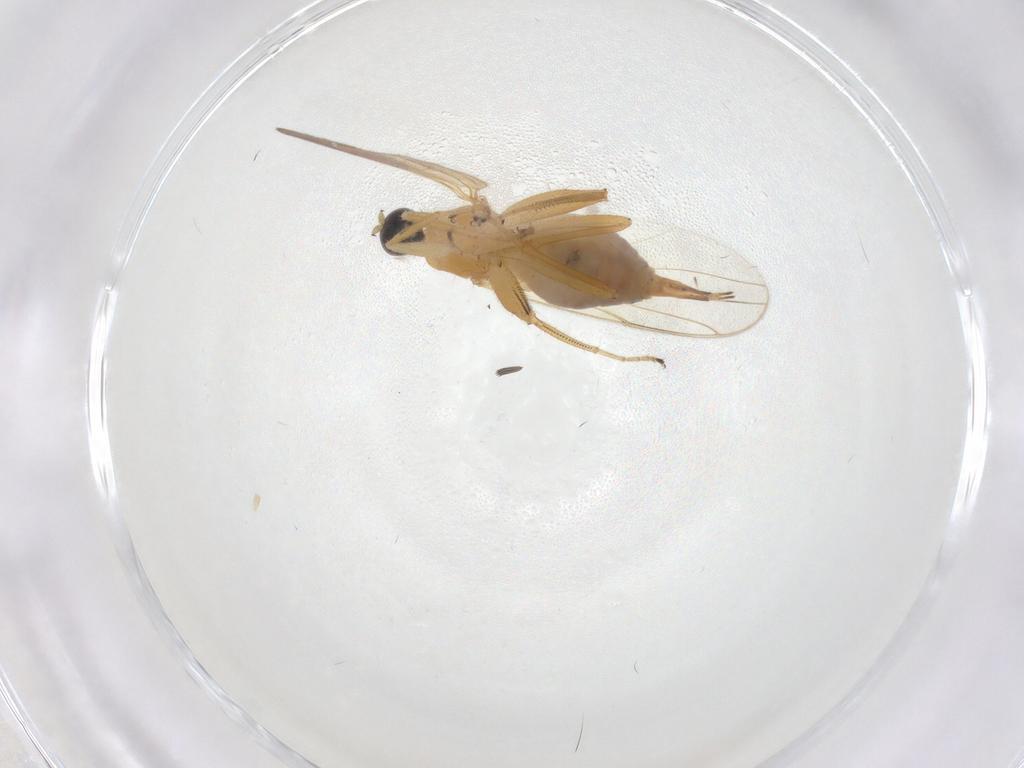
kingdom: Animalia
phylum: Arthropoda
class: Insecta
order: Diptera
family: Hybotidae
